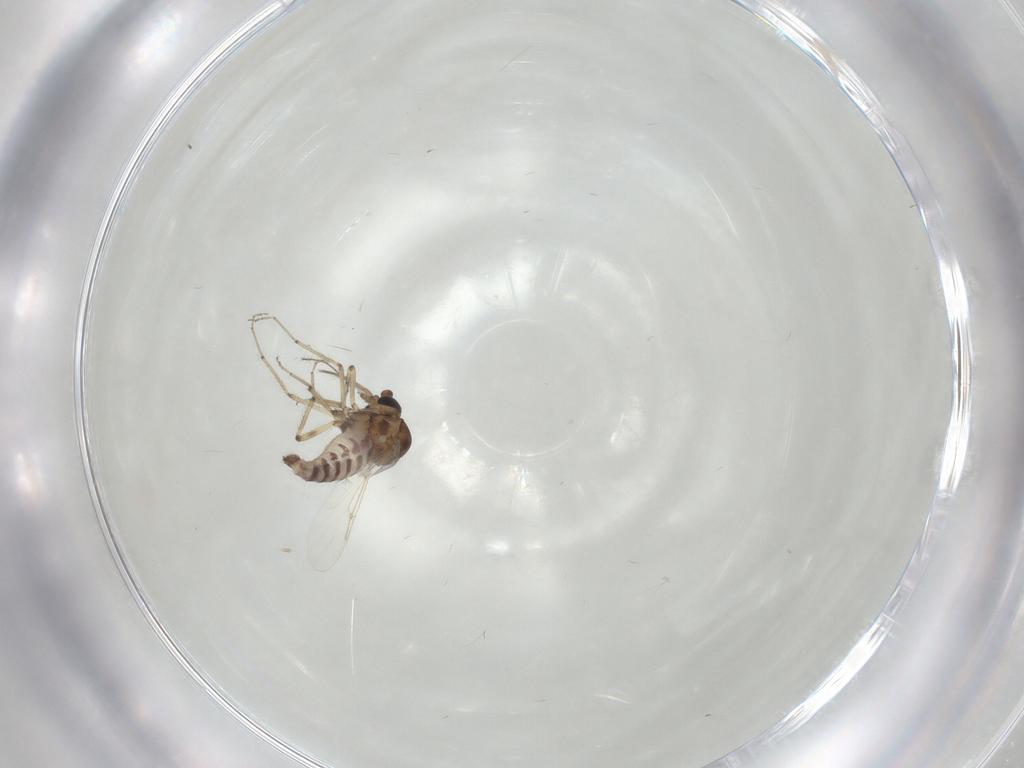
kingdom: Animalia
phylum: Arthropoda
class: Insecta
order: Diptera
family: Ceratopogonidae
